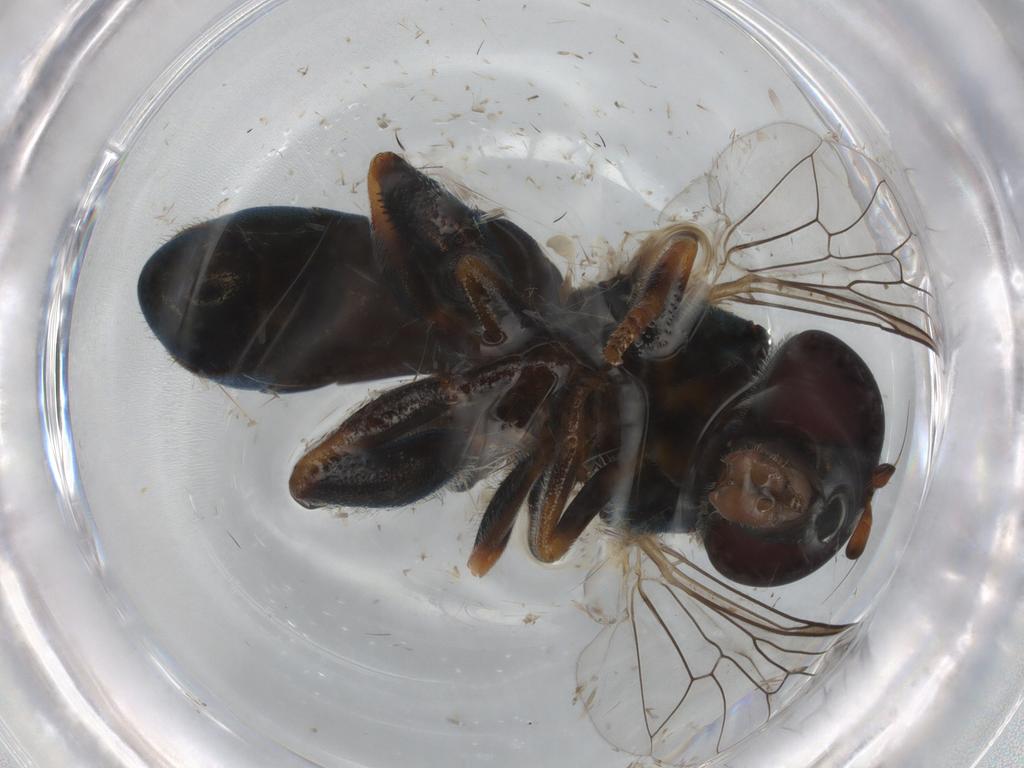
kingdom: Animalia
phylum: Arthropoda
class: Insecta
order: Diptera
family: Syrphidae
